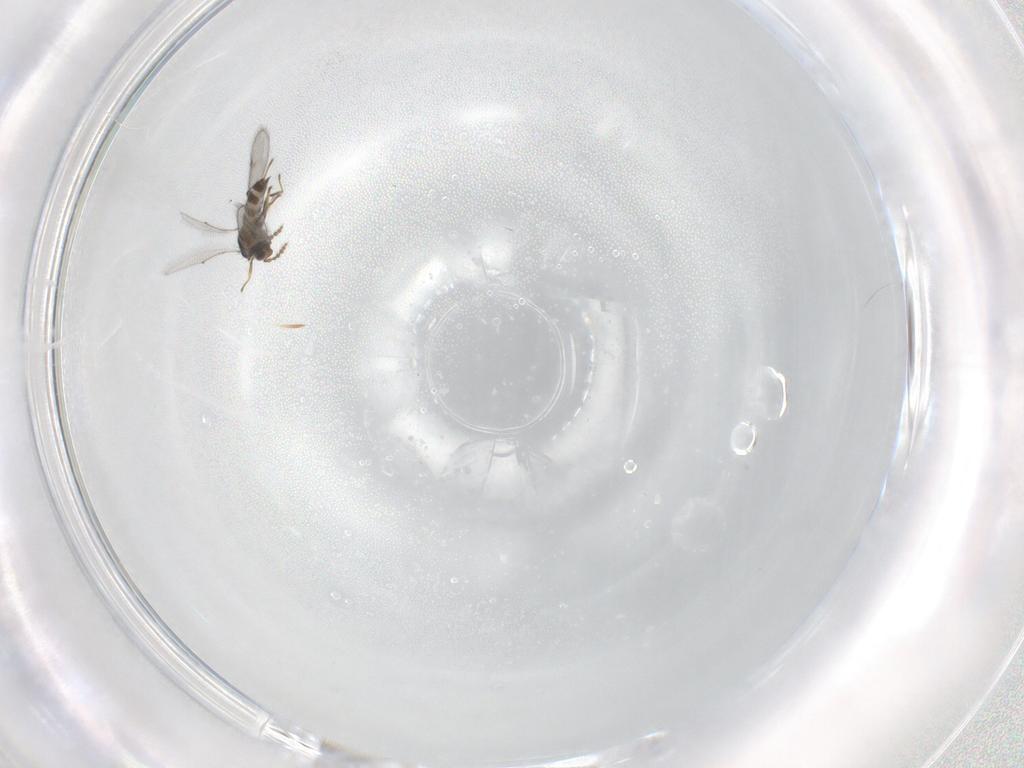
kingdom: Animalia
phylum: Arthropoda
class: Insecta
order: Hymenoptera
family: Eulophidae
